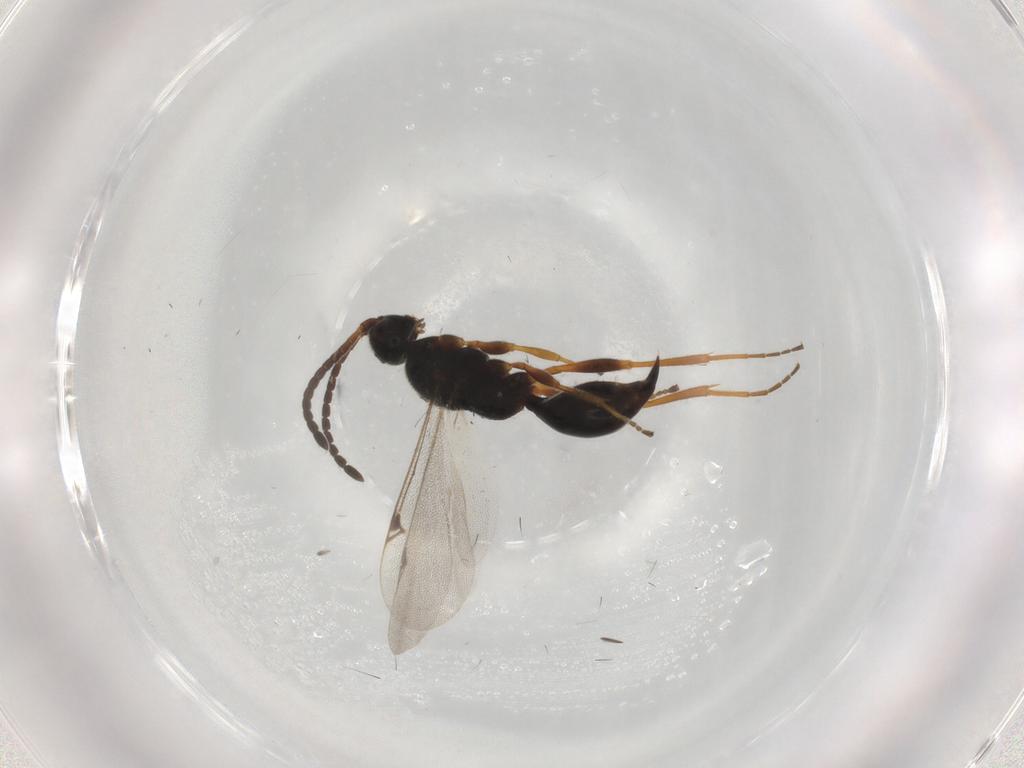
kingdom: Animalia
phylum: Arthropoda
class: Insecta
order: Hymenoptera
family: Proctotrupidae
